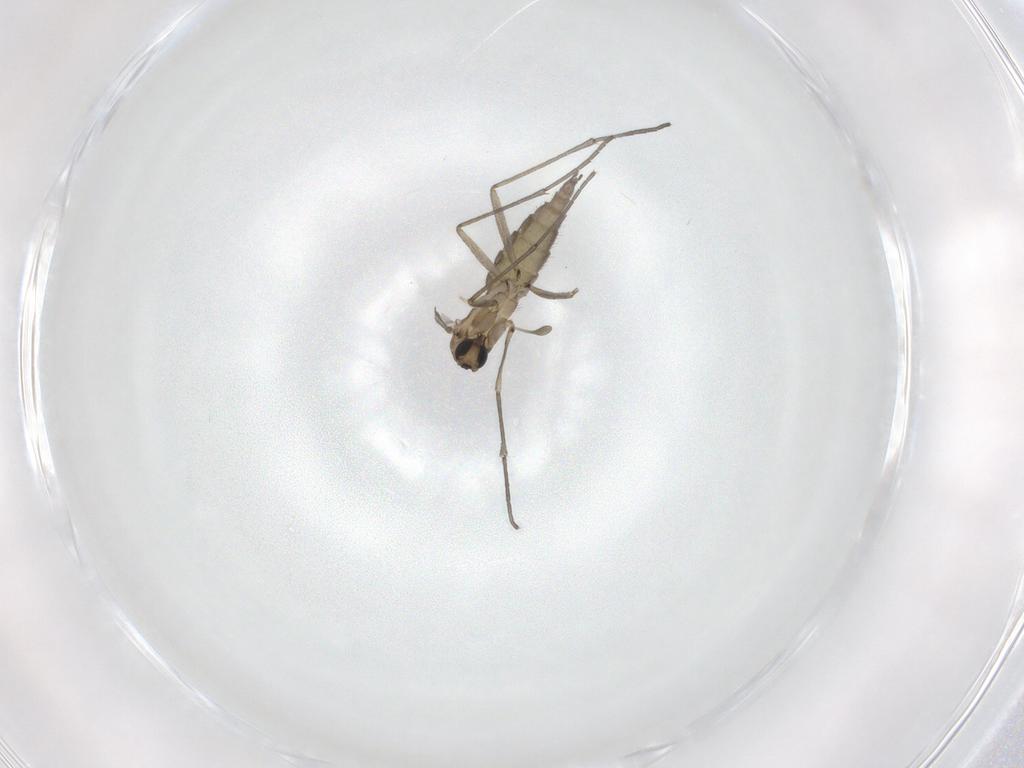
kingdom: Animalia
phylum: Arthropoda
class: Insecta
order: Diptera
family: Sciaridae
